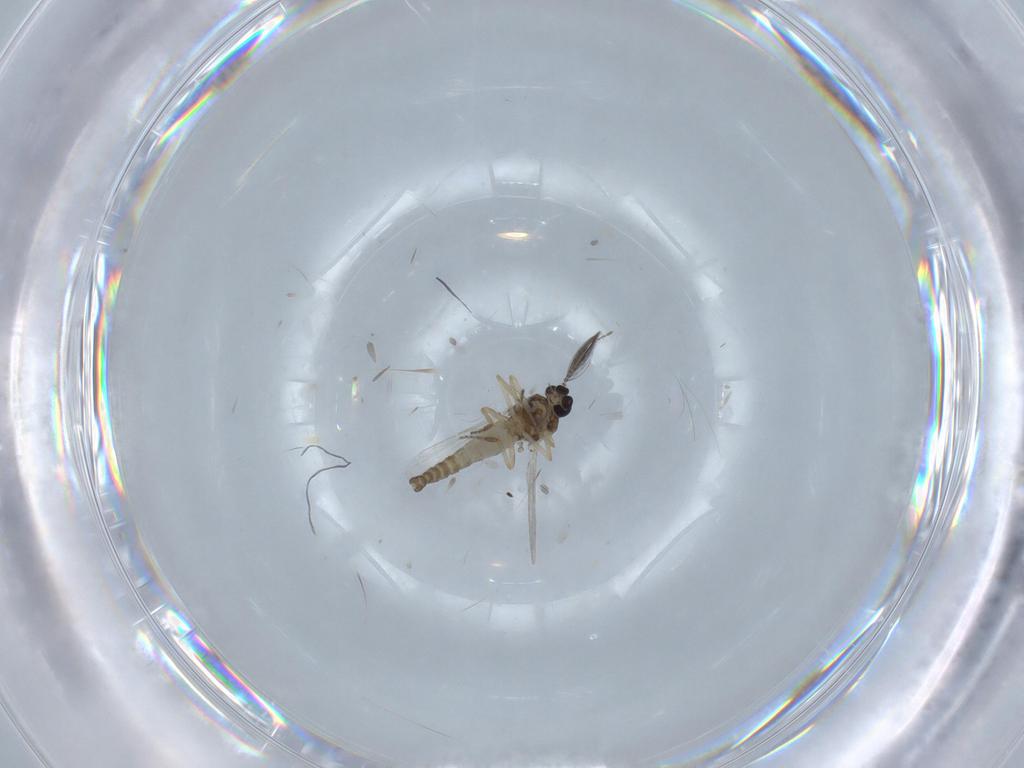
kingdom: Animalia
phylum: Arthropoda
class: Insecta
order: Diptera
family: Ceratopogonidae
